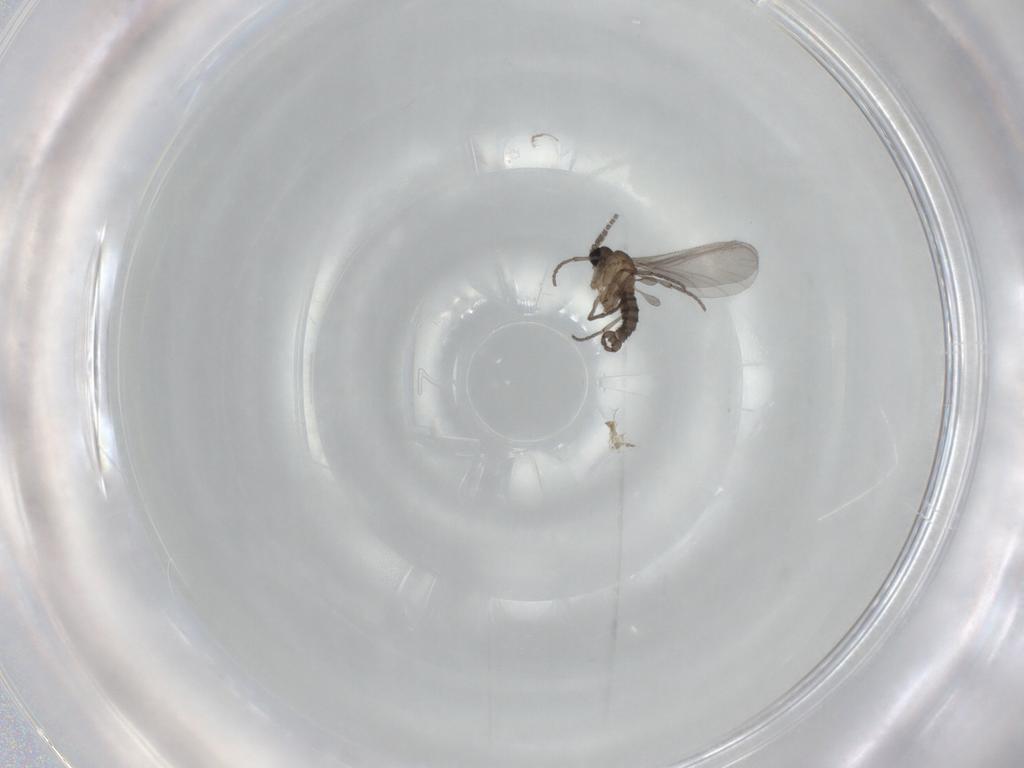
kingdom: Animalia
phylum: Arthropoda
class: Insecta
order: Diptera
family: Sciaridae
